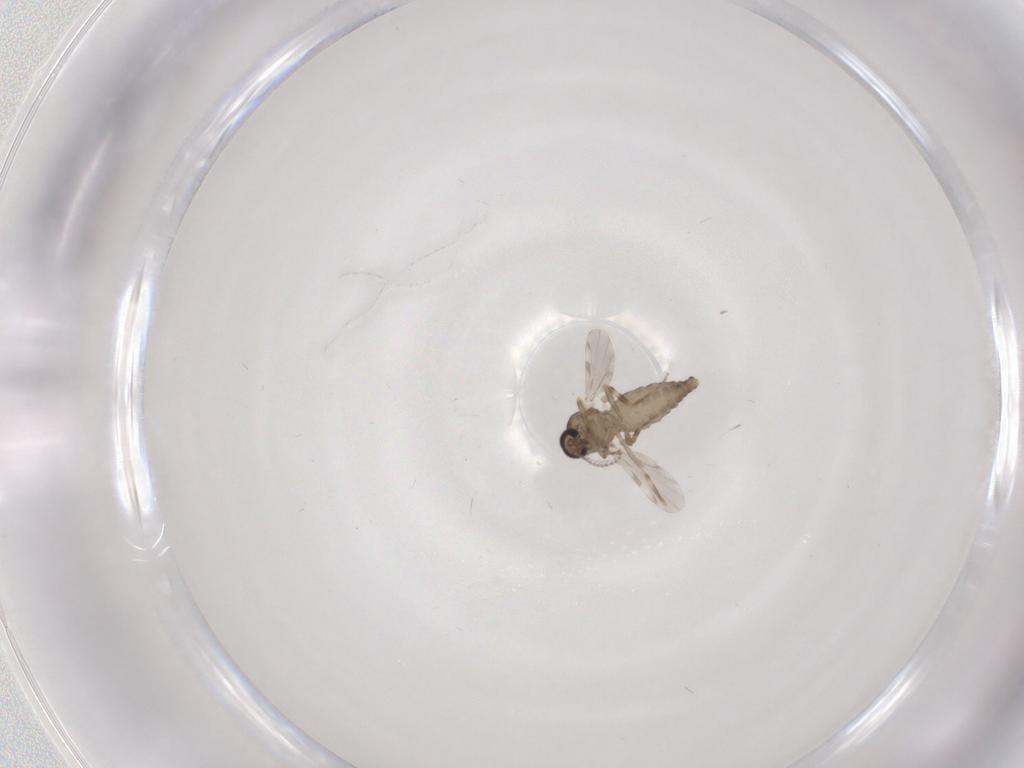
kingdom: Animalia
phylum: Arthropoda
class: Insecta
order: Diptera
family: Ceratopogonidae
